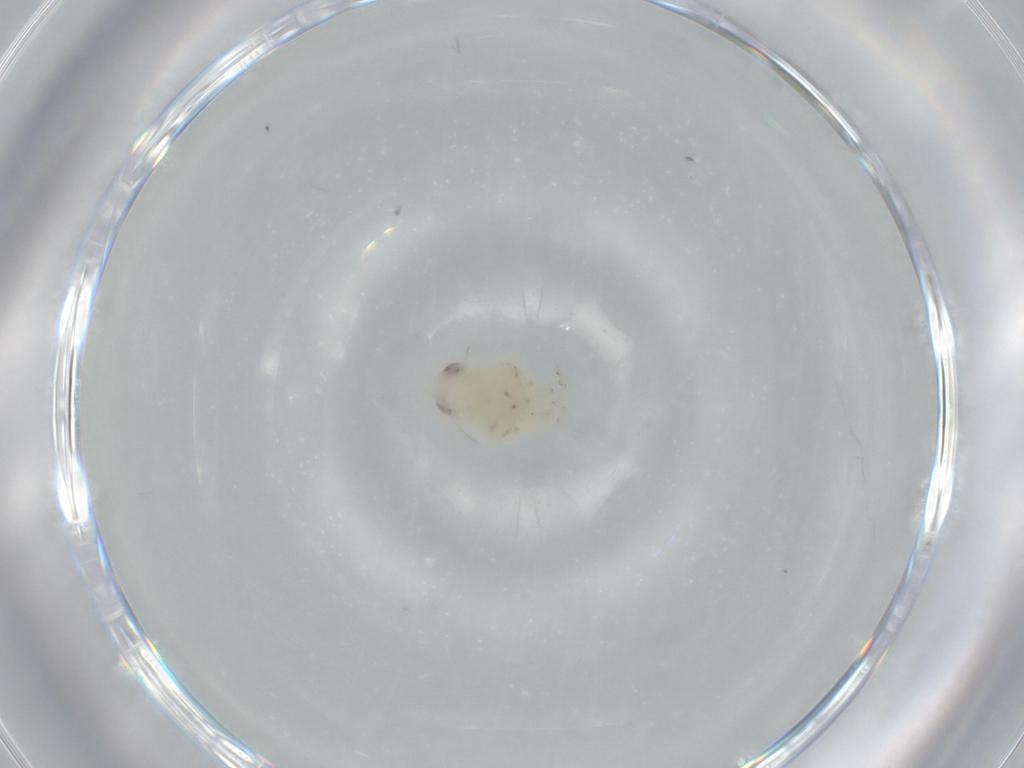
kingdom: Animalia
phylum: Arthropoda
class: Insecta
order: Hemiptera
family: Nogodinidae
